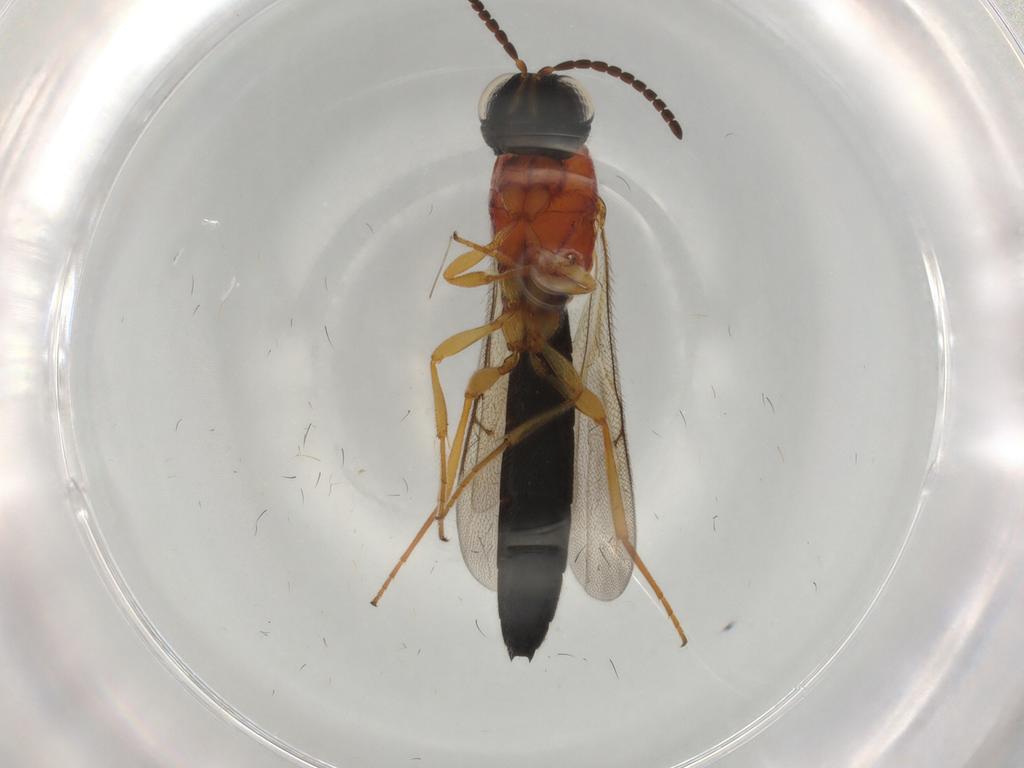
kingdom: Animalia
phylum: Arthropoda
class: Insecta
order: Hymenoptera
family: Scelionidae
